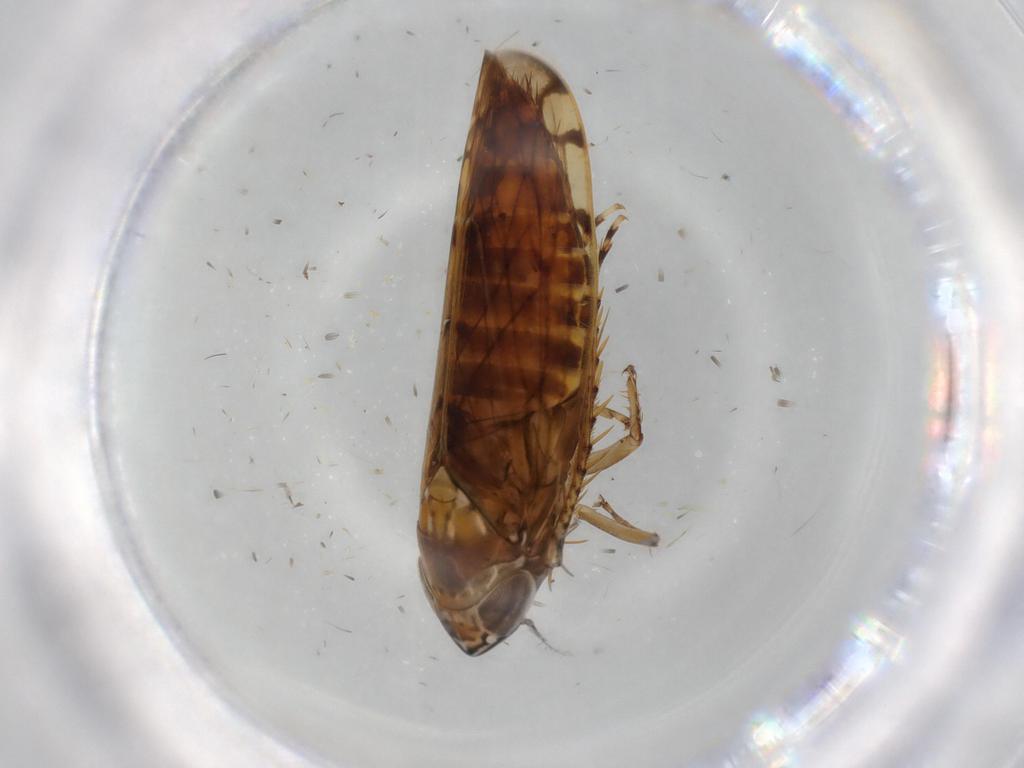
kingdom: Animalia
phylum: Arthropoda
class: Insecta
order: Hemiptera
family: Cicadellidae
